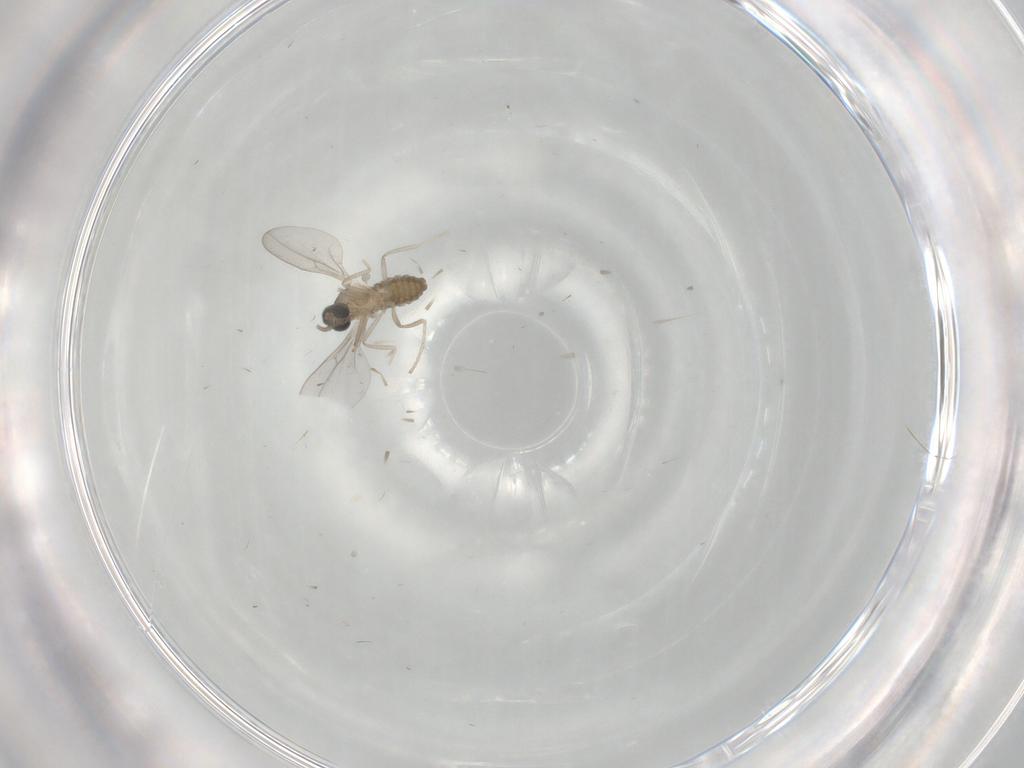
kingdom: Animalia
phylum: Arthropoda
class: Insecta
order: Diptera
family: Cecidomyiidae
